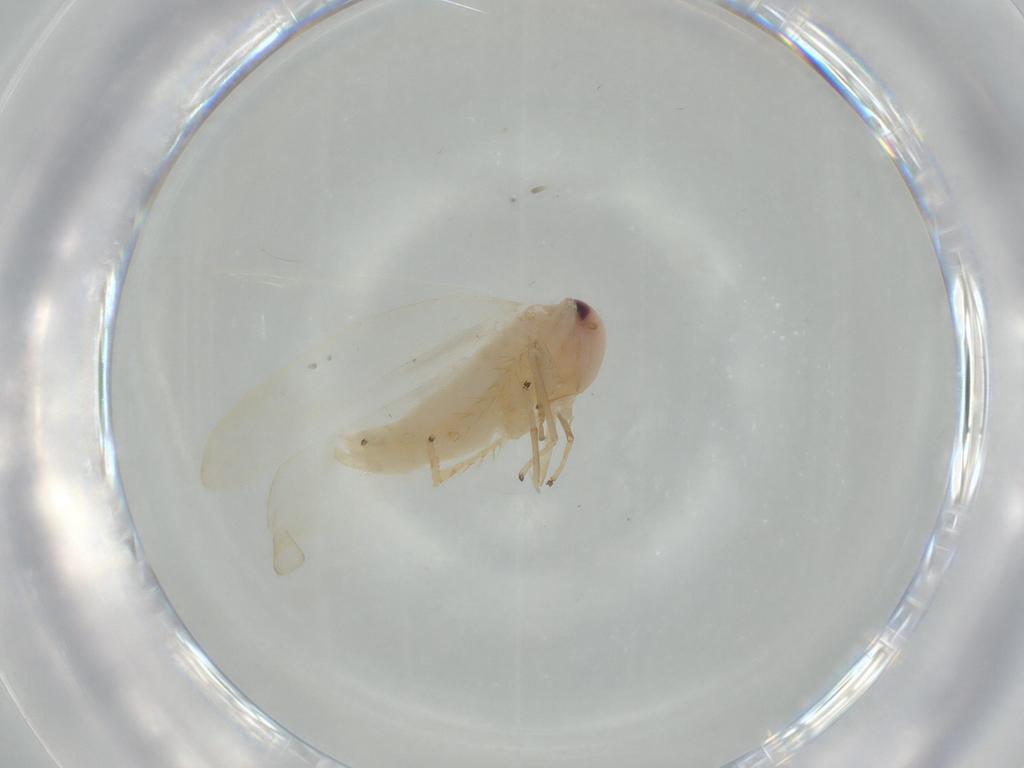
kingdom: Animalia
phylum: Arthropoda
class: Insecta
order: Hemiptera
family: Cicadellidae
